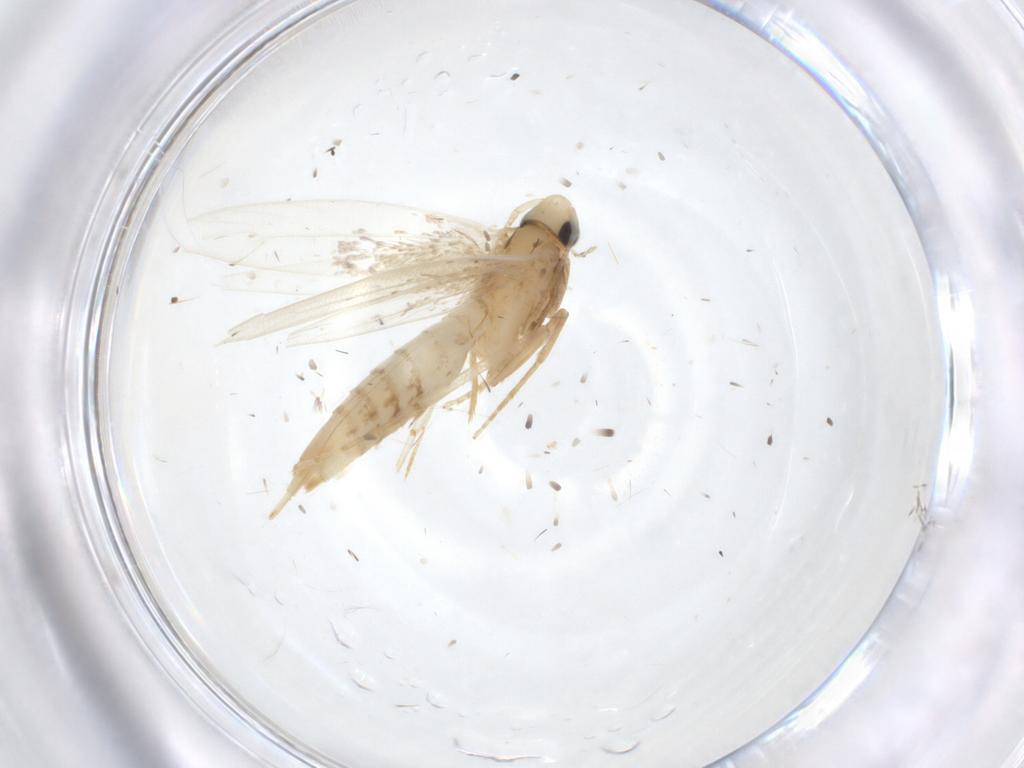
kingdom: Animalia
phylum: Arthropoda
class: Insecta
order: Lepidoptera
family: Tineidae
